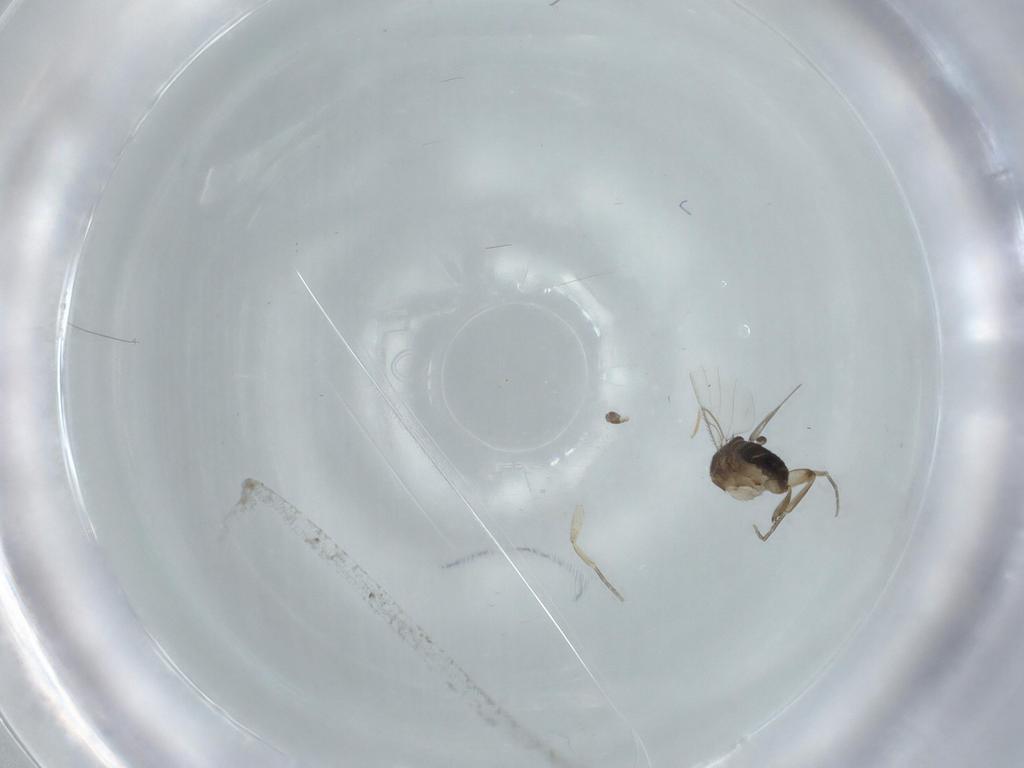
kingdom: Animalia
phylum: Arthropoda
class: Insecta
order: Diptera
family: Phoridae
